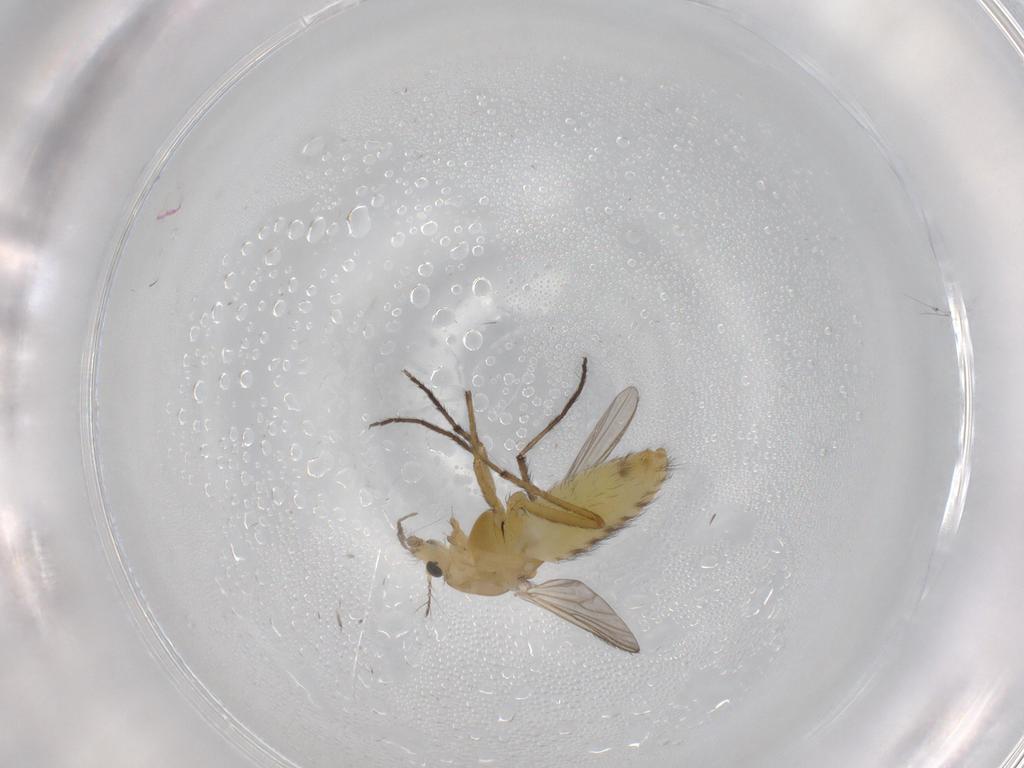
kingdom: Animalia
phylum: Arthropoda
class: Insecta
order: Diptera
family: Chironomidae
